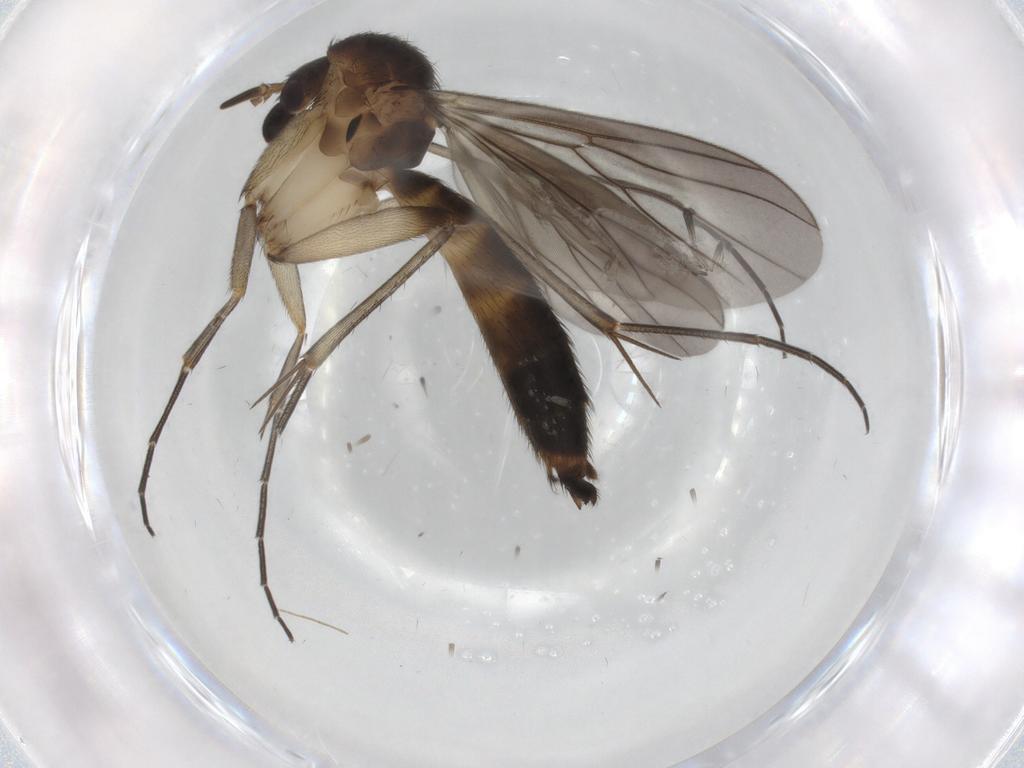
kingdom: Animalia
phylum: Arthropoda
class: Insecta
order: Diptera
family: Mycetophilidae
